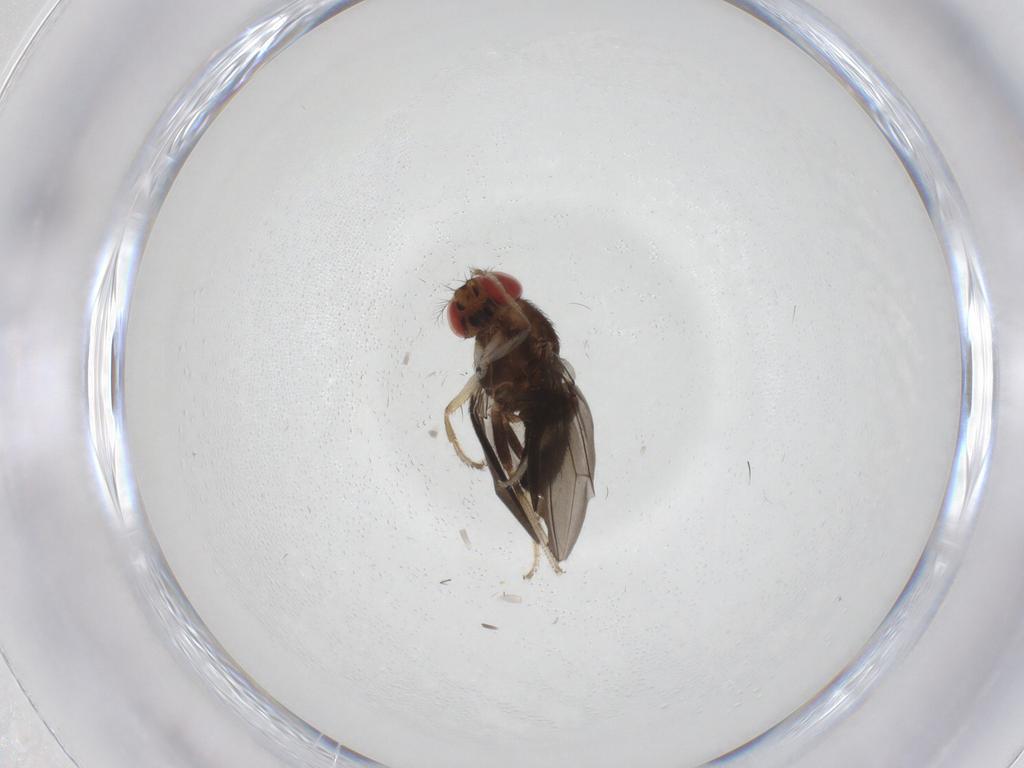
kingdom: Animalia
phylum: Arthropoda
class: Insecta
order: Diptera
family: Drosophilidae
